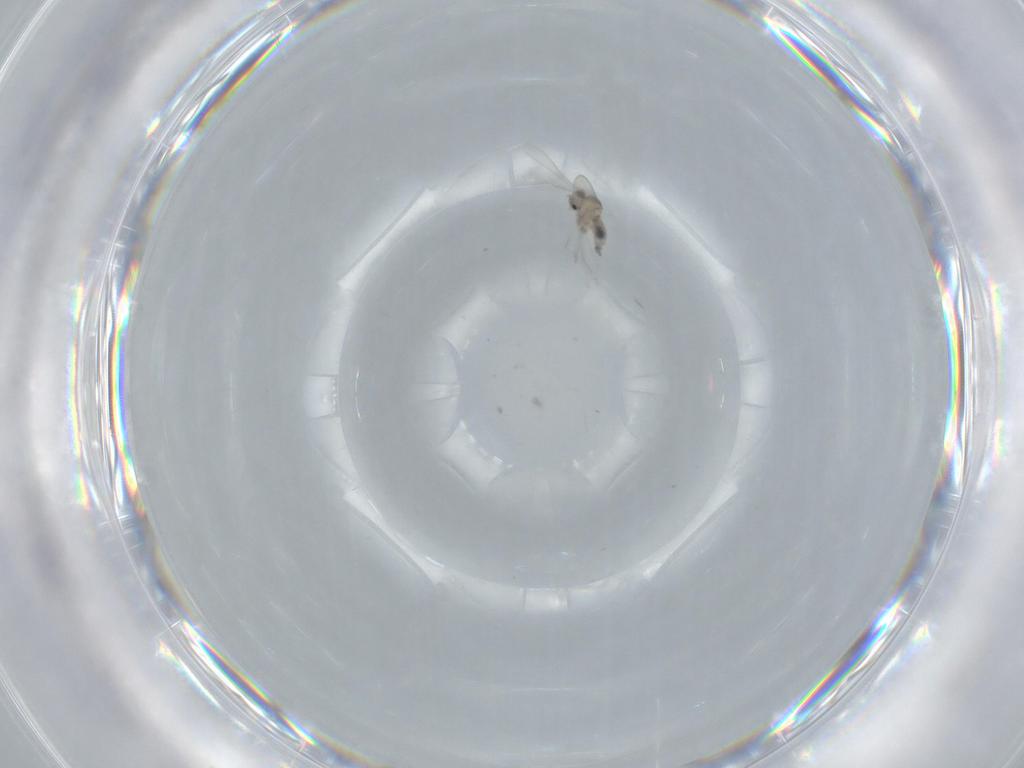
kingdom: Animalia
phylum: Arthropoda
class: Insecta
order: Diptera
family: Cecidomyiidae
